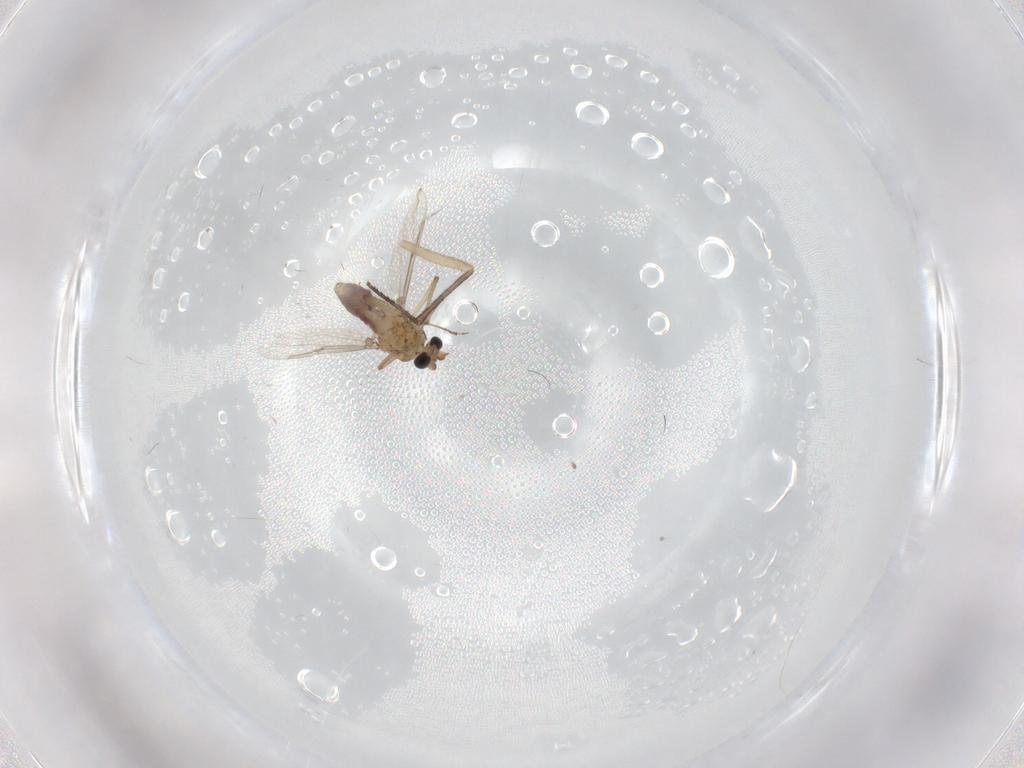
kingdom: Animalia
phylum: Arthropoda
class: Insecta
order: Diptera
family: Ceratopogonidae
